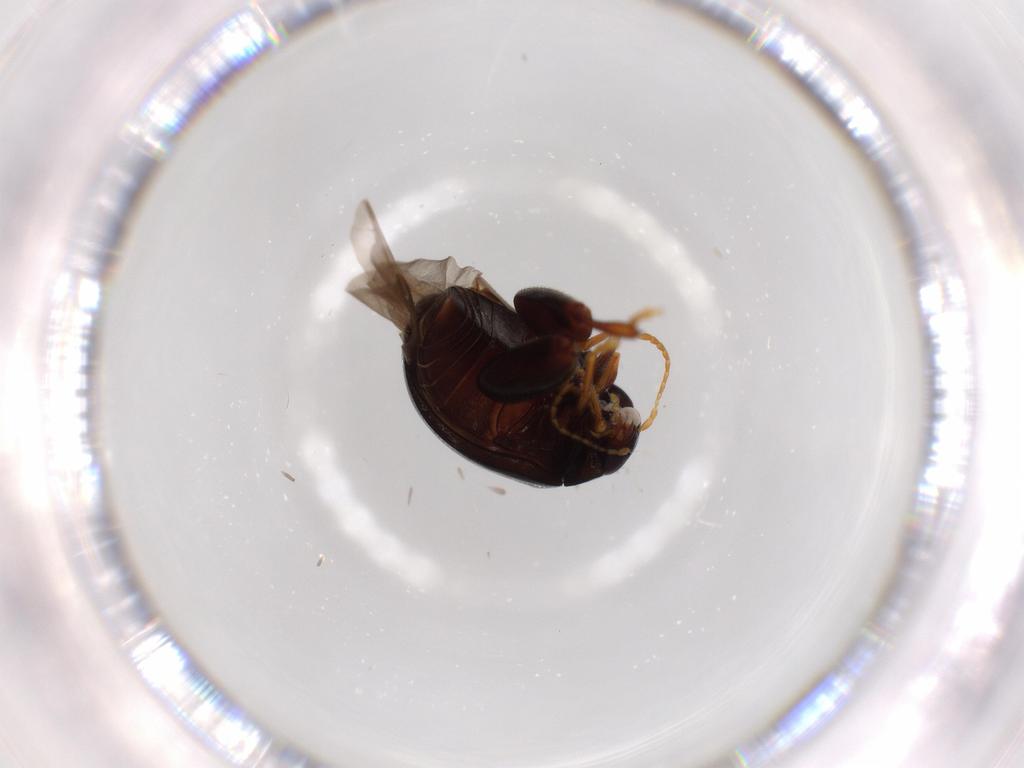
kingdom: Animalia
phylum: Arthropoda
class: Insecta
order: Coleoptera
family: Chrysomelidae
